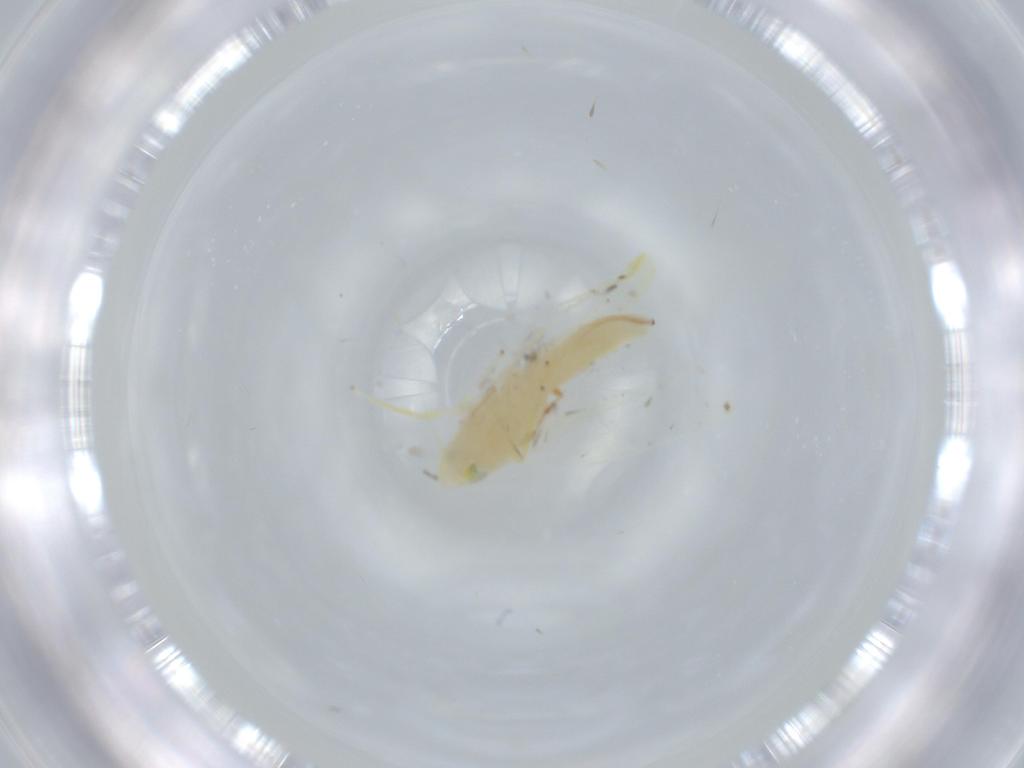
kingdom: Animalia
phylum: Arthropoda
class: Insecta
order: Hemiptera
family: Cicadellidae
